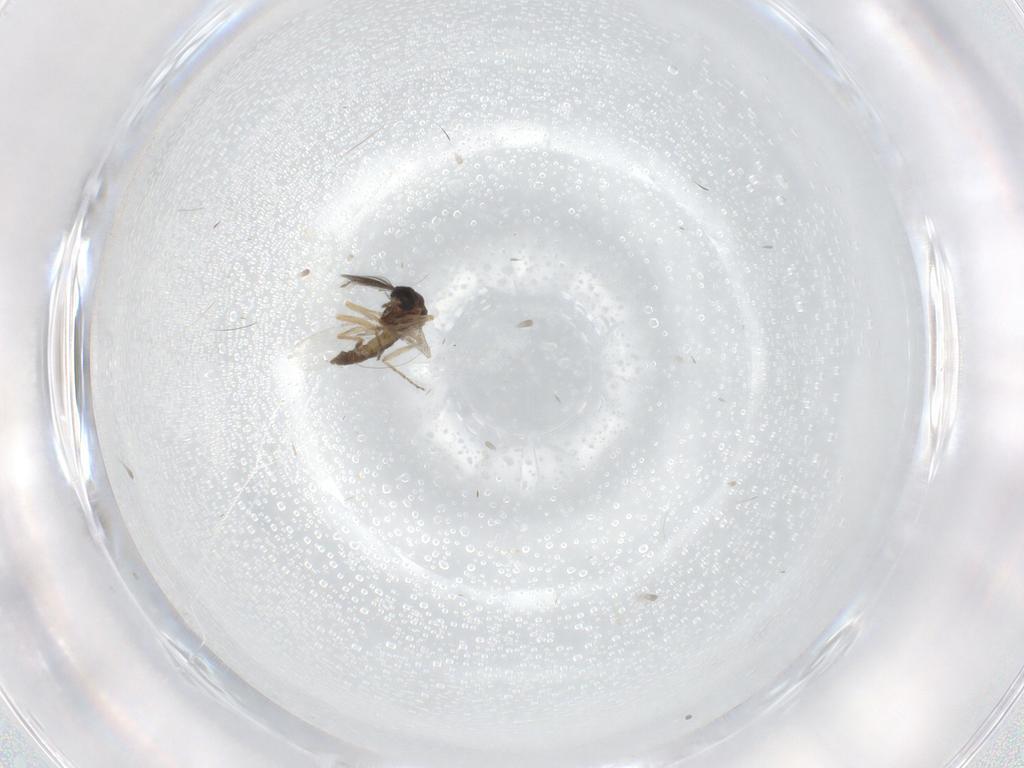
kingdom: Animalia
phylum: Arthropoda
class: Insecta
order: Diptera
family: Ceratopogonidae
